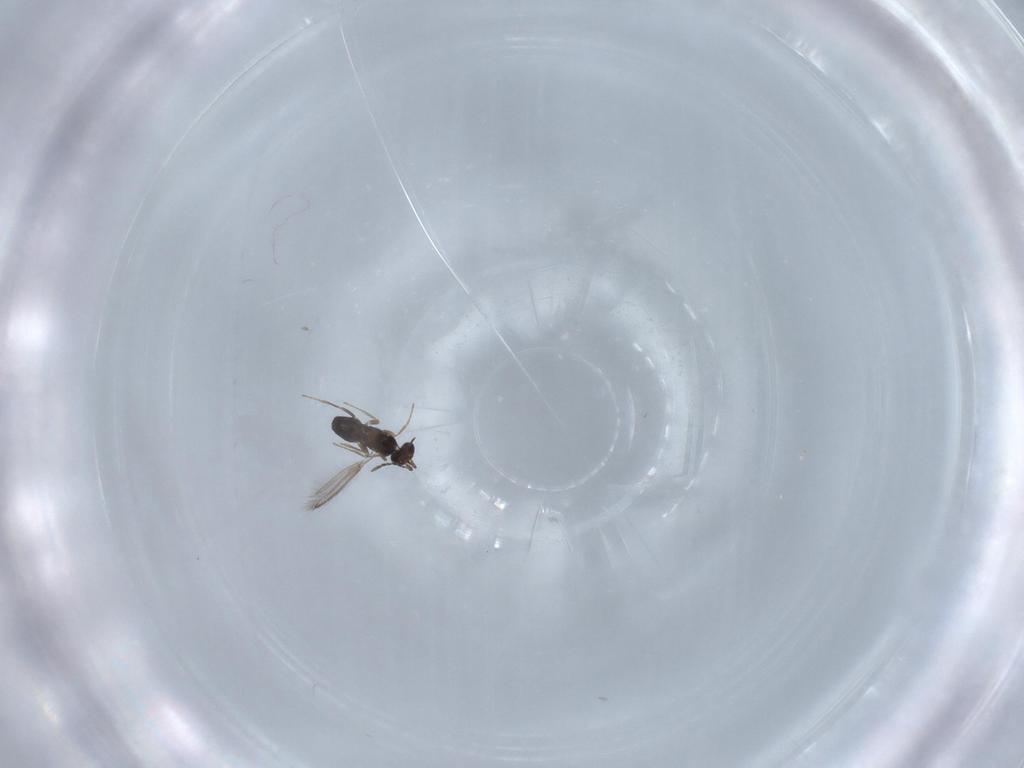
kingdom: Animalia
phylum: Arthropoda
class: Insecta
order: Hymenoptera
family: Mymaridae
